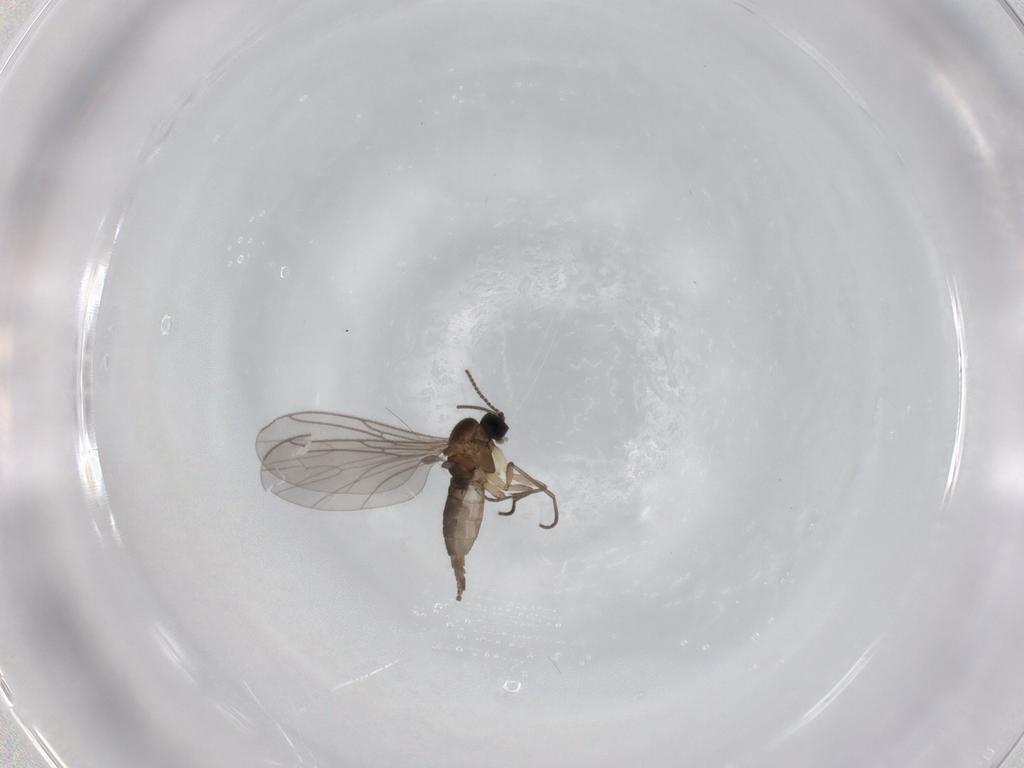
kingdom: Animalia
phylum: Arthropoda
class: Insecta
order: Diptera
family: Sciaridae
